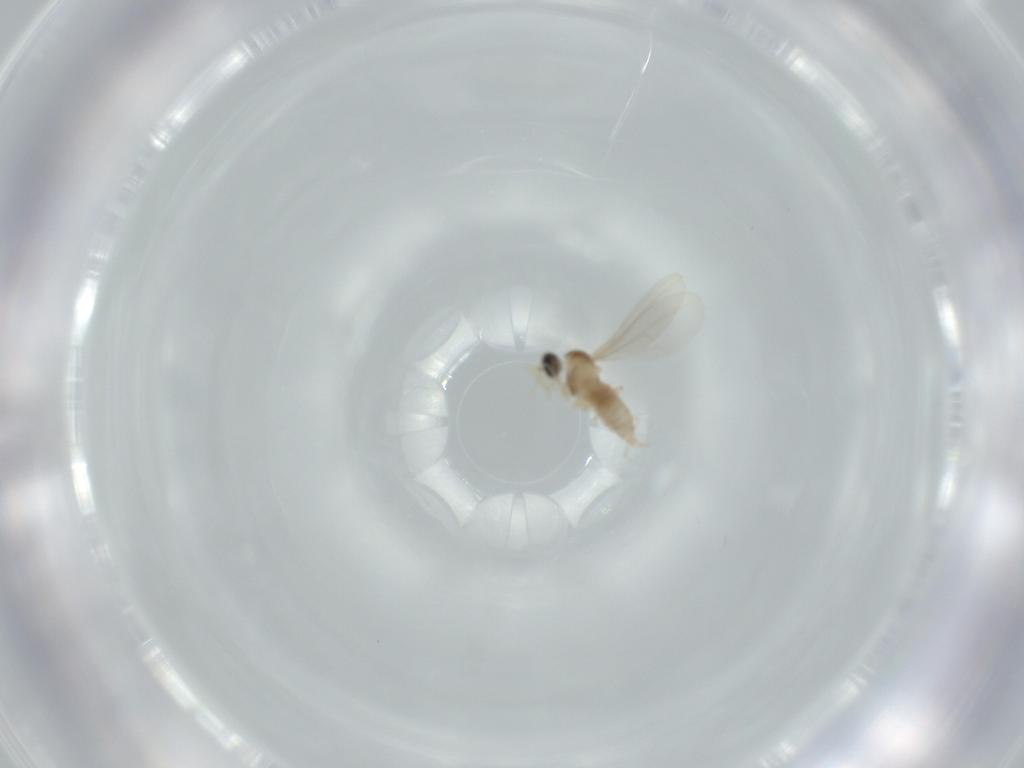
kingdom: Animalia
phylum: Arthropoda
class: Insecta
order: Diptera
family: Cecidomyiidae
